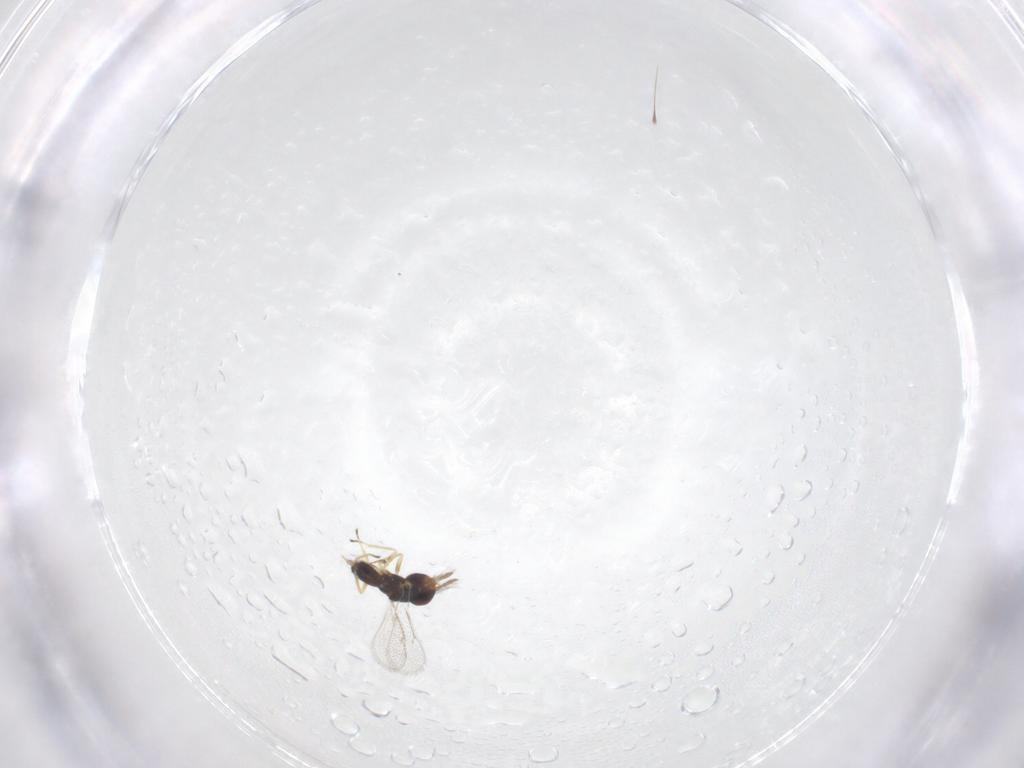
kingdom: Animalia
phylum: Arthropoda
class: Insecta
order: Hymenoptera
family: Eulophidae
